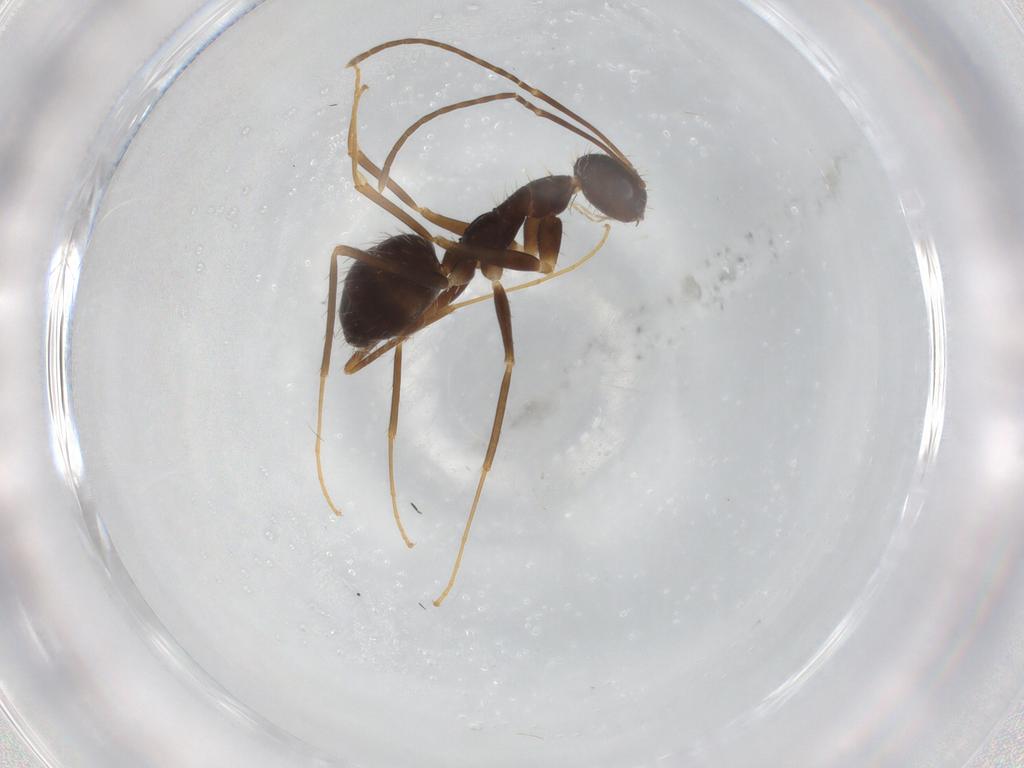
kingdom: Animalia
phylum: Arthropoda
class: Insecta
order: Hymenoptera
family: Formicidae
